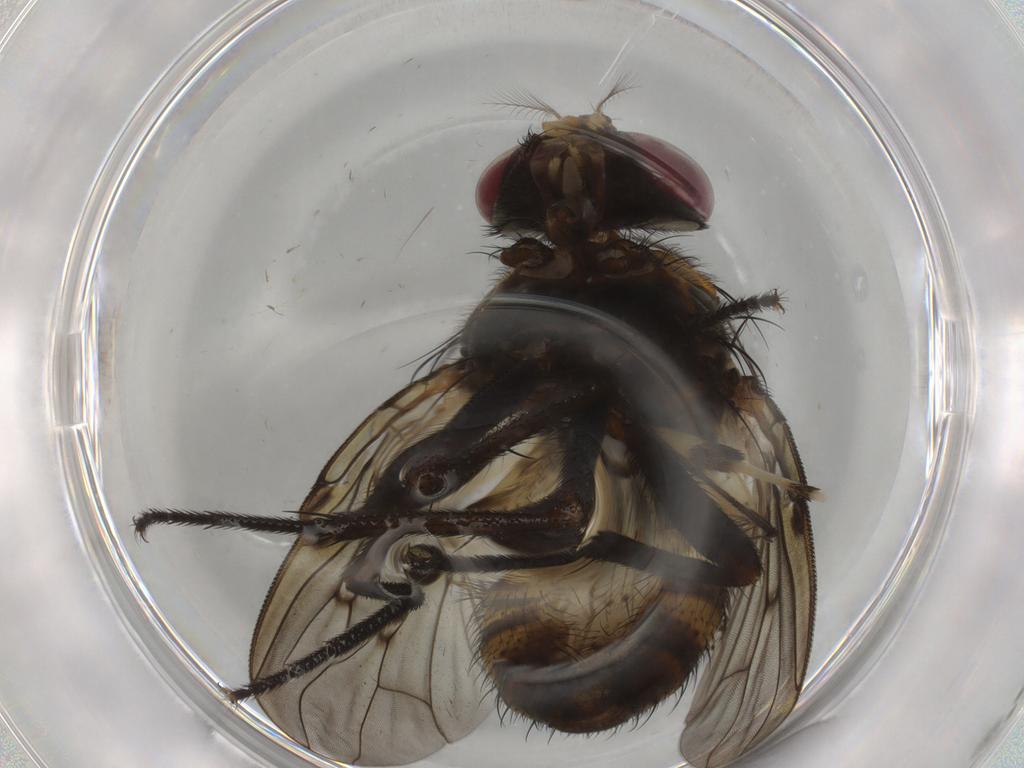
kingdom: Animalia
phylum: Arthropoda
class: Insecta
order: Diptera
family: Muscidae
